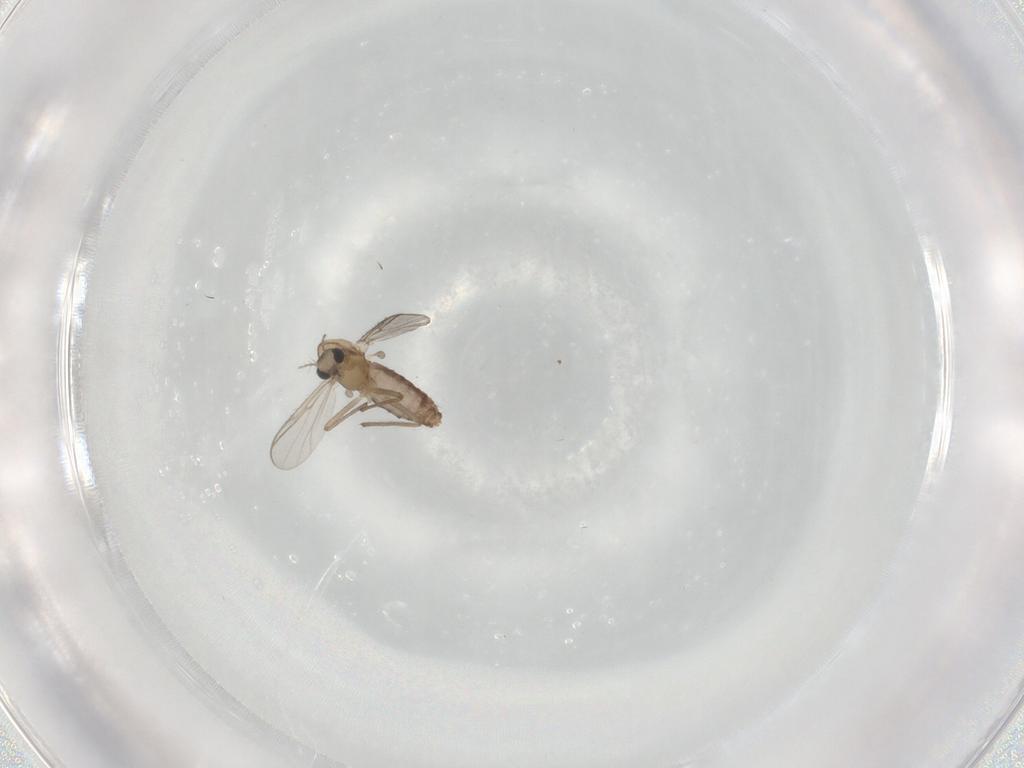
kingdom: Animalia
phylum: Arthropoda
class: Insecta
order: Diptera
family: Chironomidae
